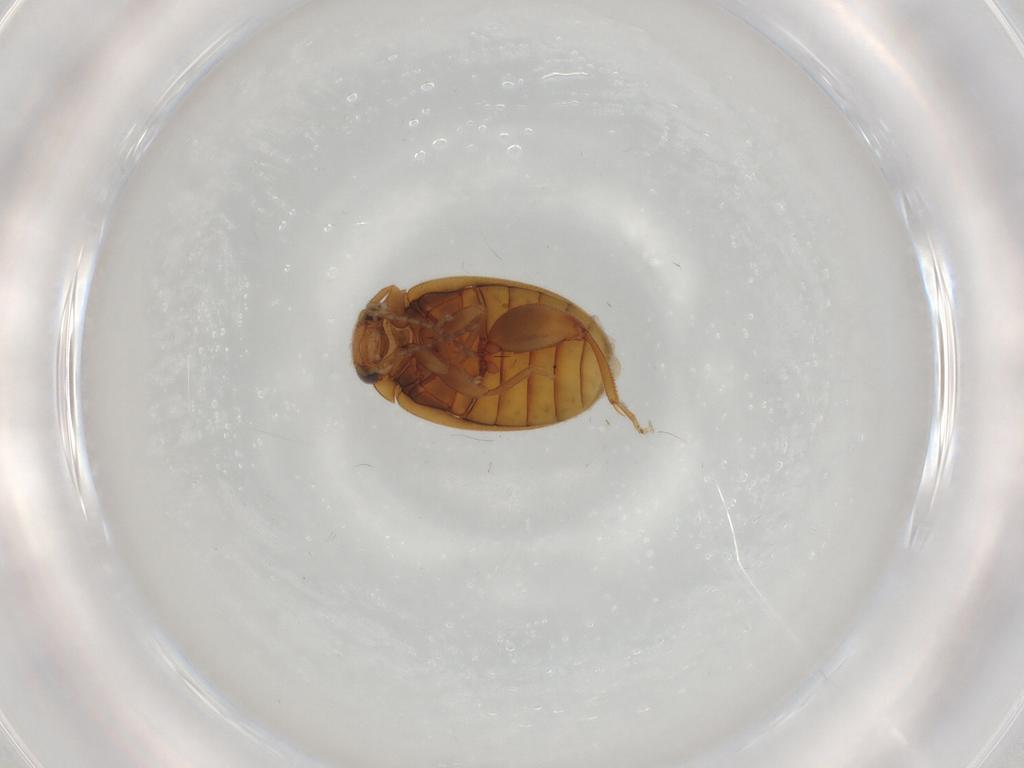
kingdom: Animalia
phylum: Arthropoda
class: Insecta
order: Coleoptera
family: Scirtidae
